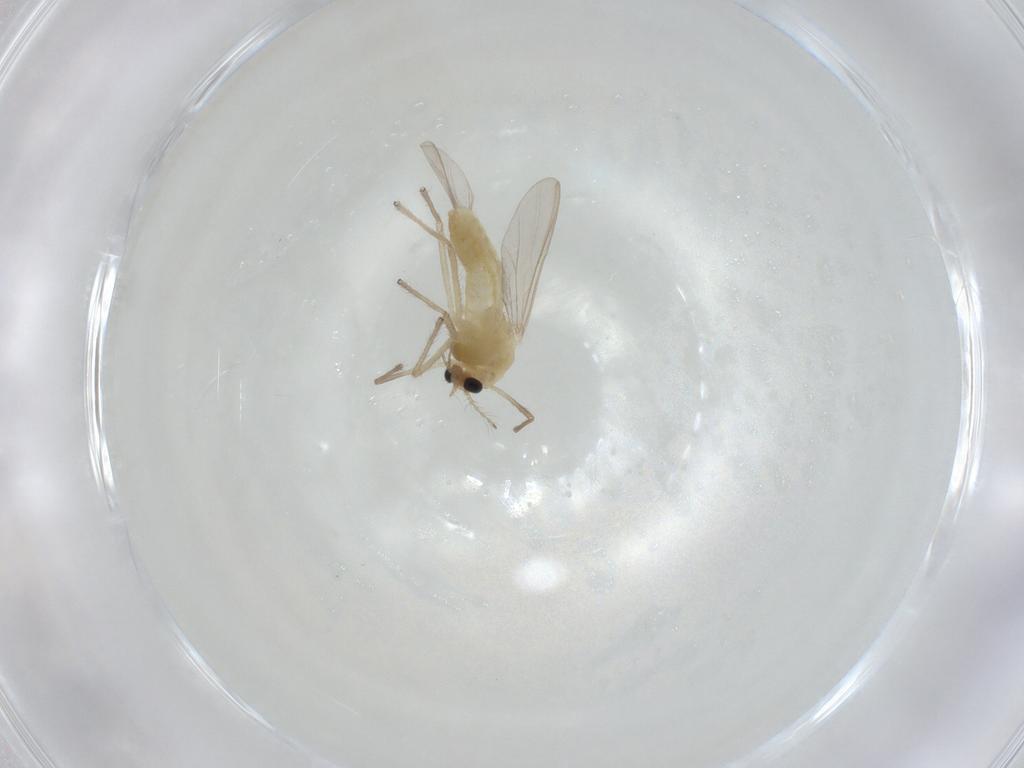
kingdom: Animalia
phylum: Arthropoda
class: Insecta
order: Diptera
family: Chironomidae
